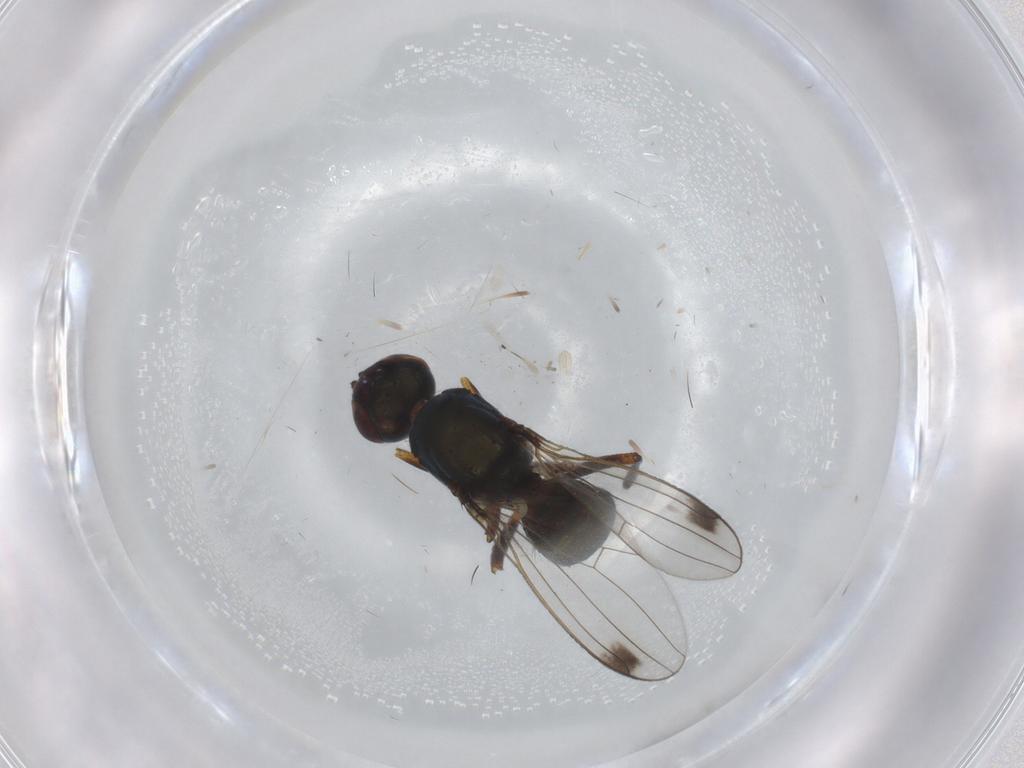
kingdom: Animalia
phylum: Arthropoda
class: Insecta
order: Diptera
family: Sepsidae
